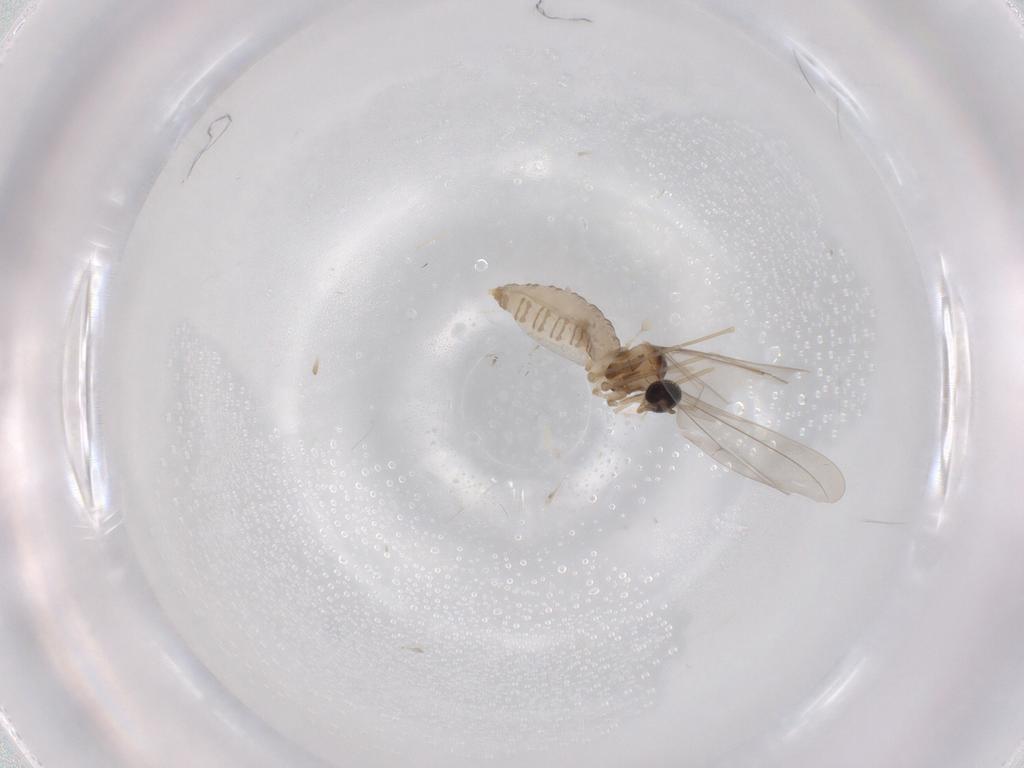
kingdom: Animalia
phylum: Arthropoda
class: Insecta
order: Diptera
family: Cecidomyiidae
